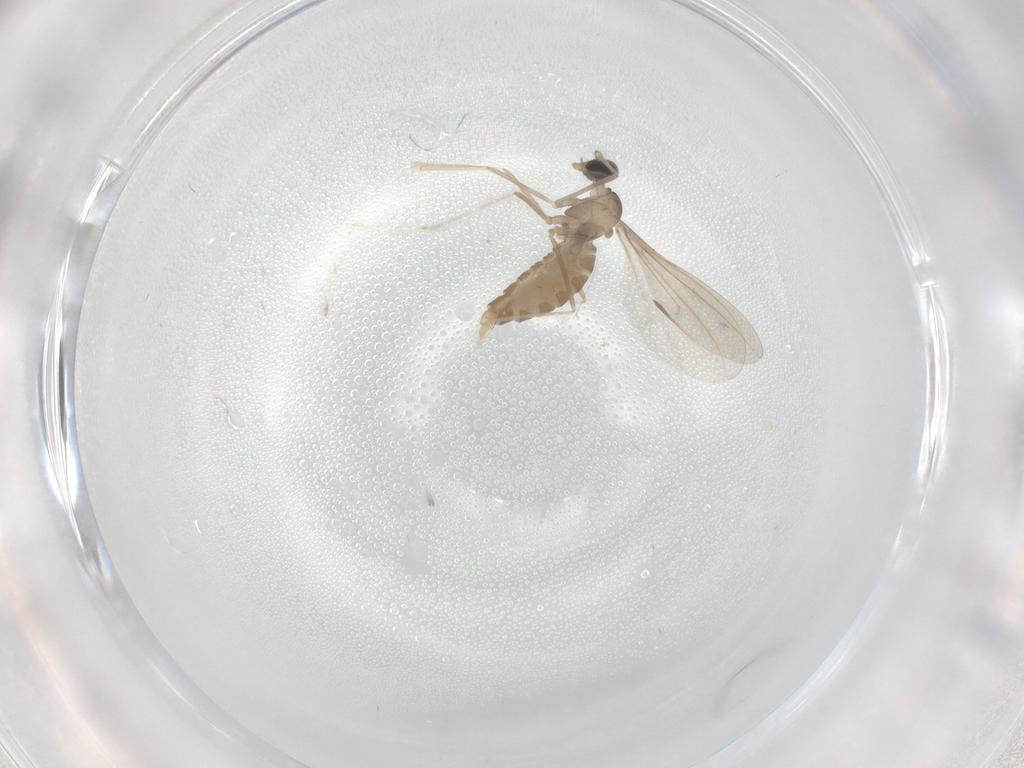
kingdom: Animalia
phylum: Arthropoda
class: Insecta
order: Diptera
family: Cecidomyiidae
